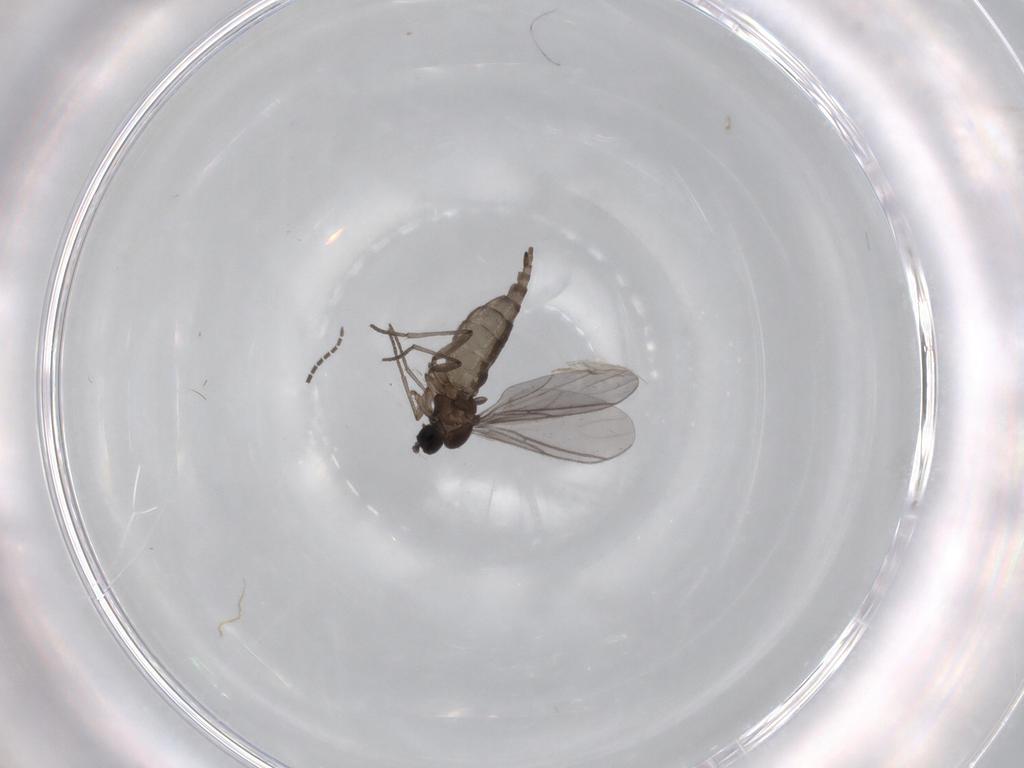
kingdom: Animalia
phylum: Arthropoda
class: Insecta
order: Diptera
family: Sciaridae
